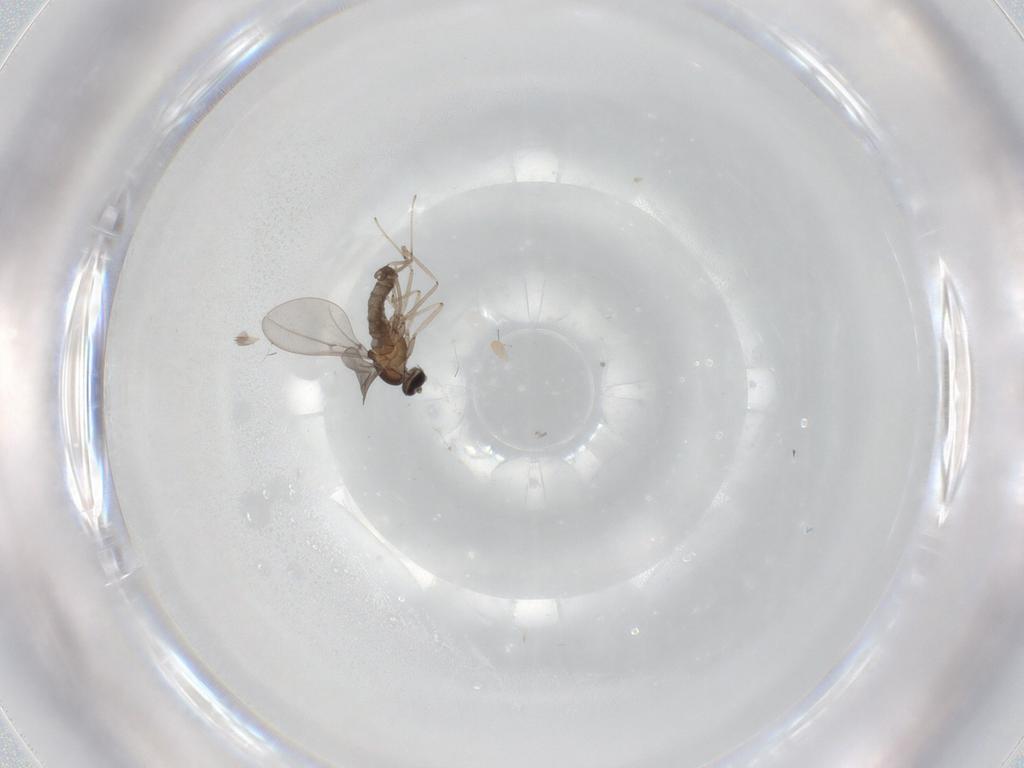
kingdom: Animalia
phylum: Arthropoda
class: Insecta
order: Diptera
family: Cecidomyiidae
